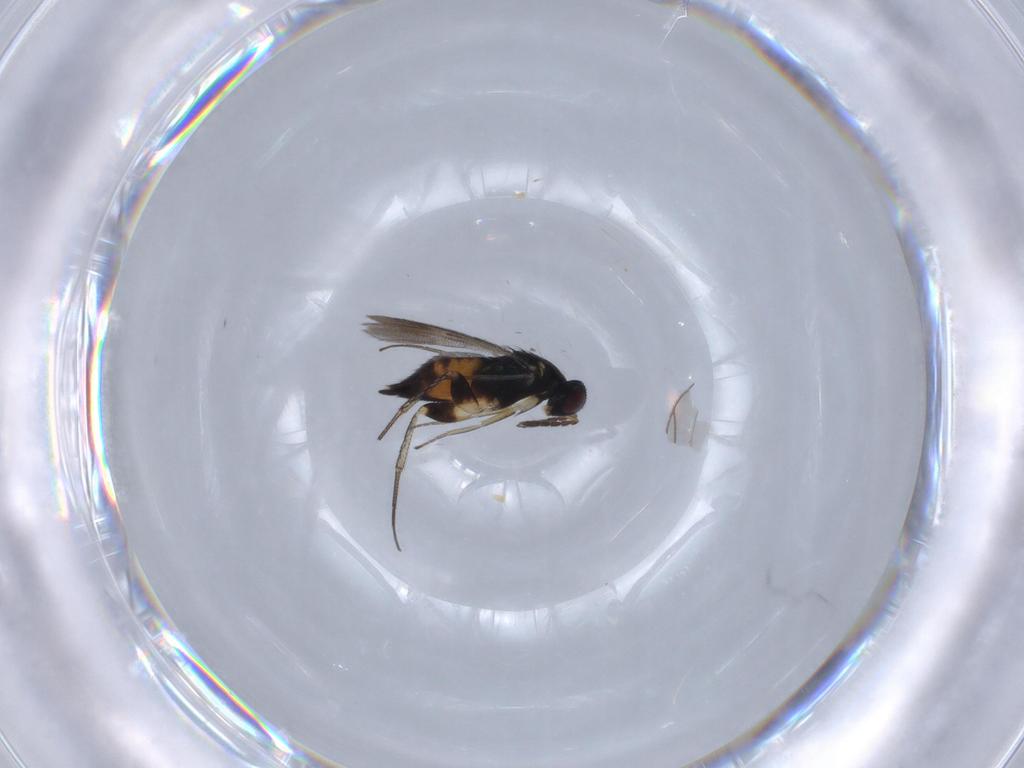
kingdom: Animalia
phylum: Arthropoda
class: Insecta
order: Hymenoptera
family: Eulophidae
